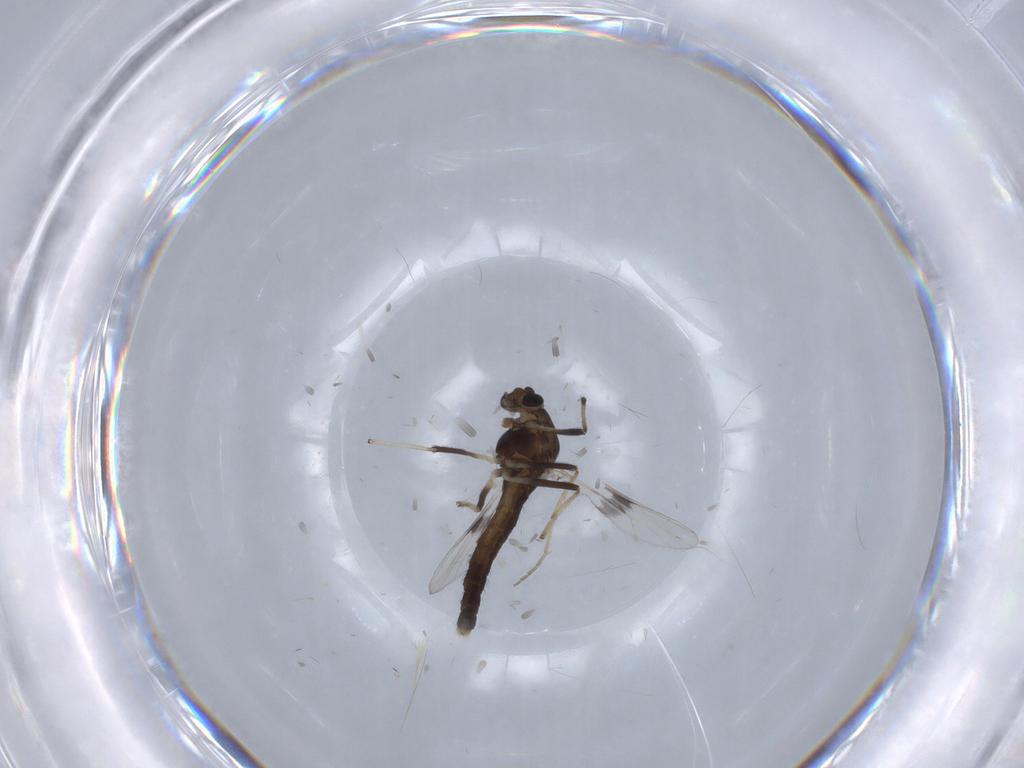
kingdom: Animalia
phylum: Arthropoda
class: Insecta
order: Diptera
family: Chironomidae
